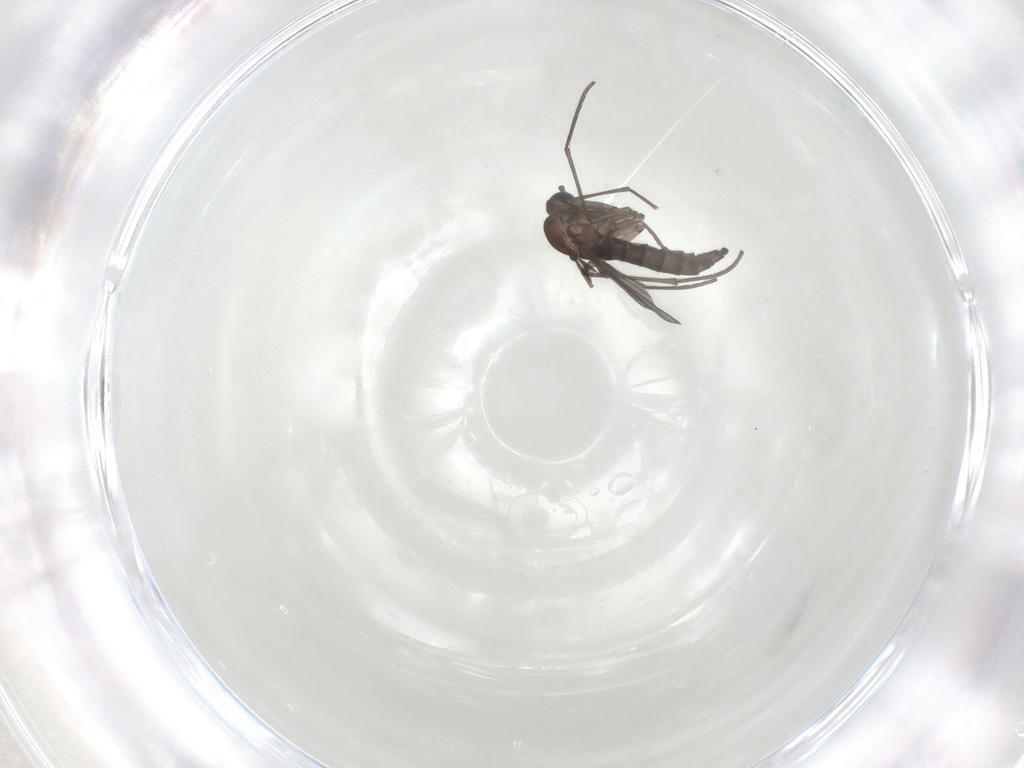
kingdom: Animalia
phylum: Arthropoda
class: Insecta
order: Diptera
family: Sciaridae
